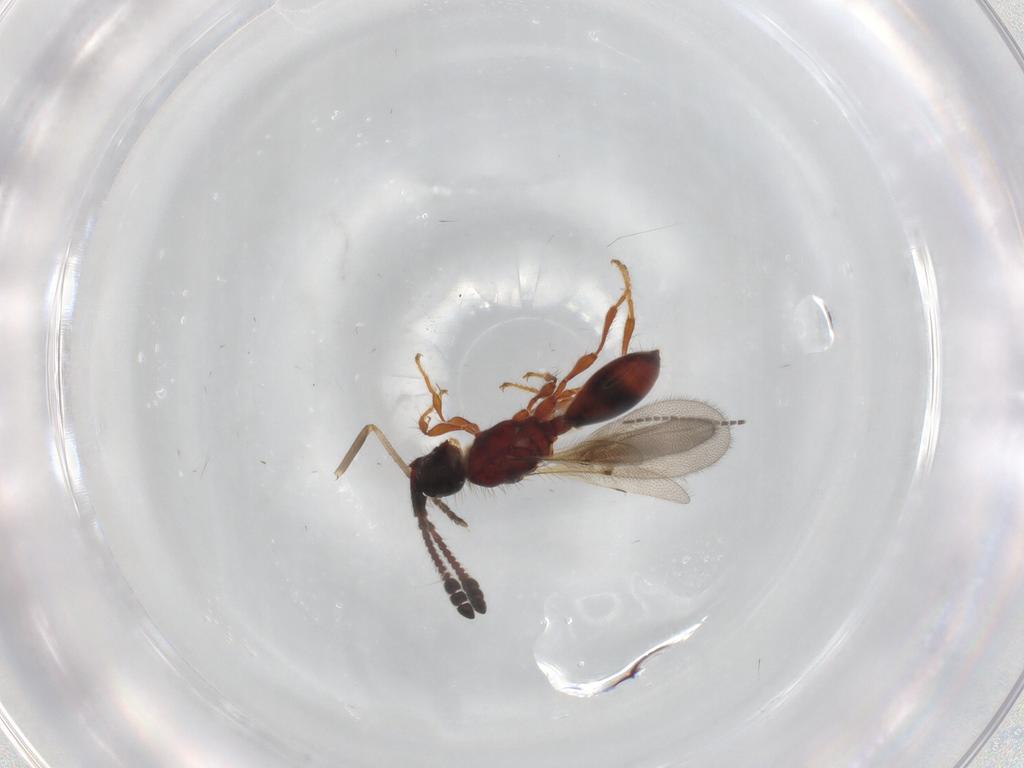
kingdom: Animalia
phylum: Arthropoda
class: Insecta
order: Hymenoptera
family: Diapriidae
